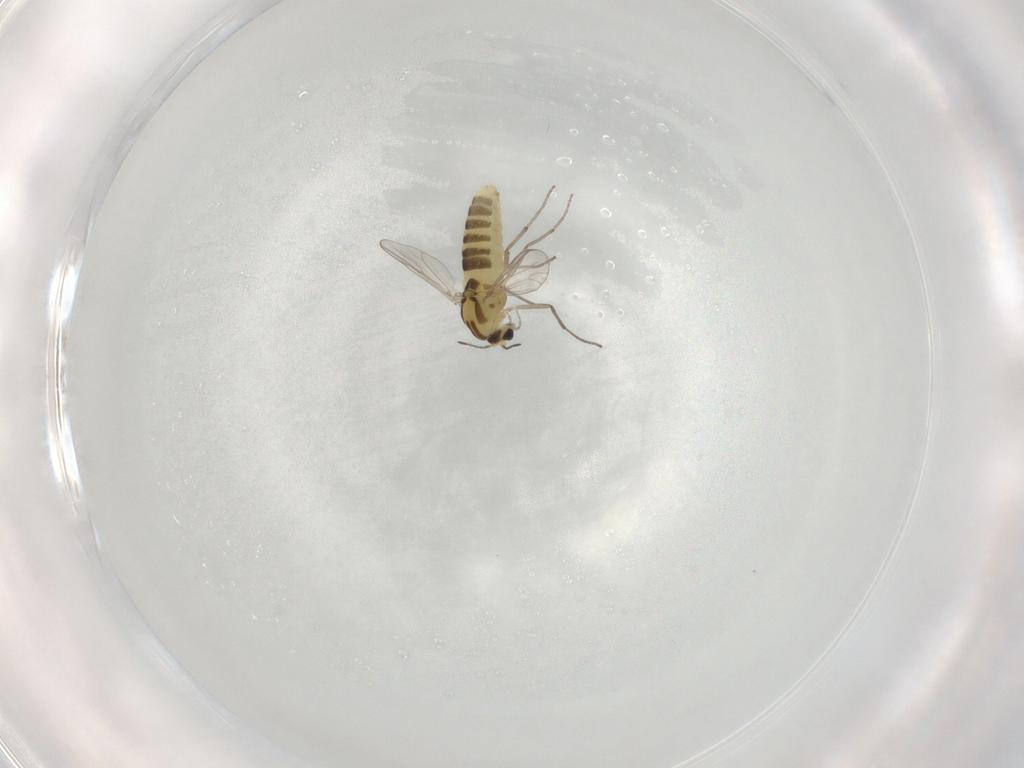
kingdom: Animalia
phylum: Arthropoda
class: Insecta
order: Diptera
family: Chironomidae
